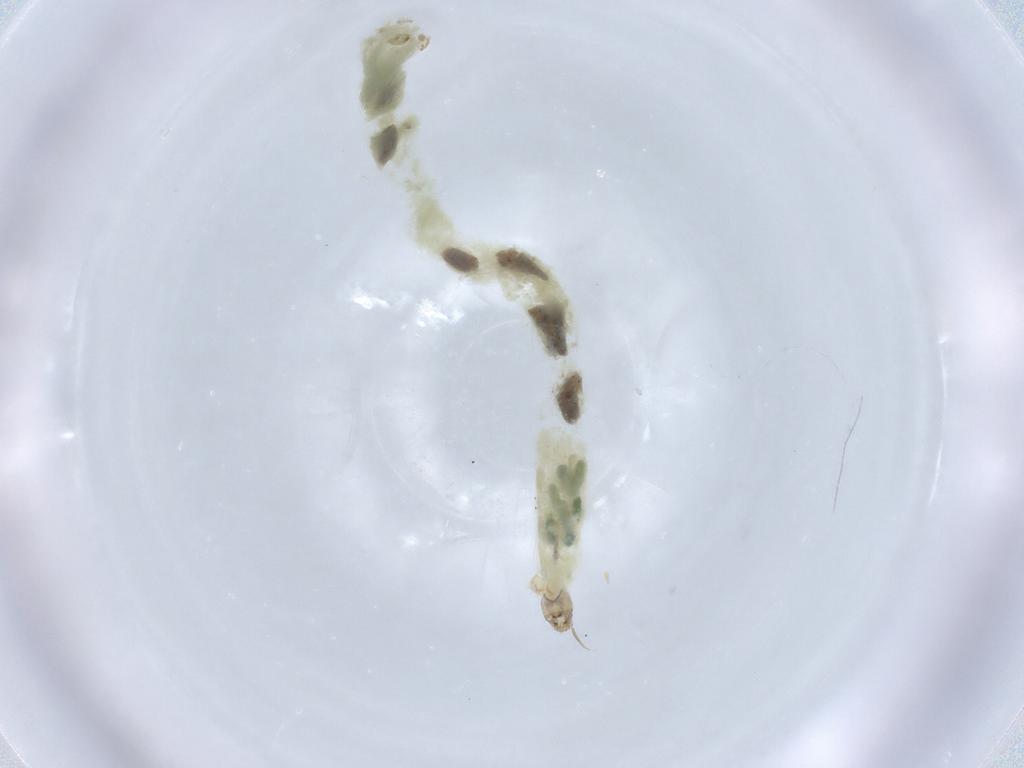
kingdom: Animalia
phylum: Arthropoda
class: Insecta
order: Diptera
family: Chironomidae
